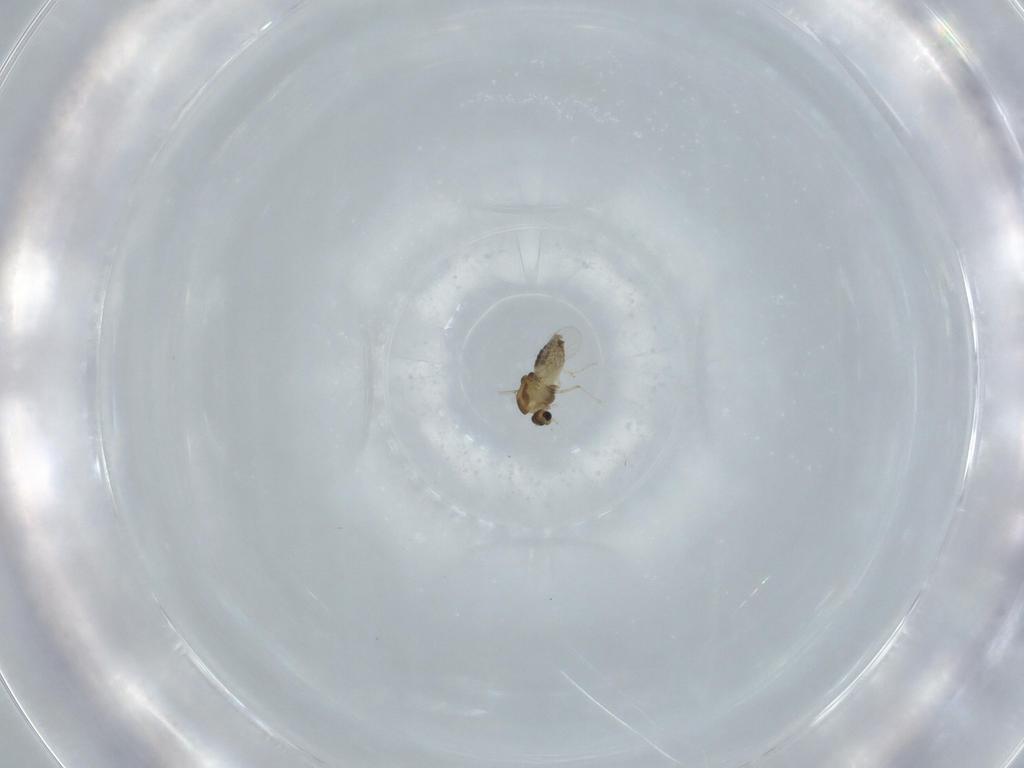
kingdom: Animalia
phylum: Arthropoda
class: Insecta
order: Diptera
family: Chironomidae
